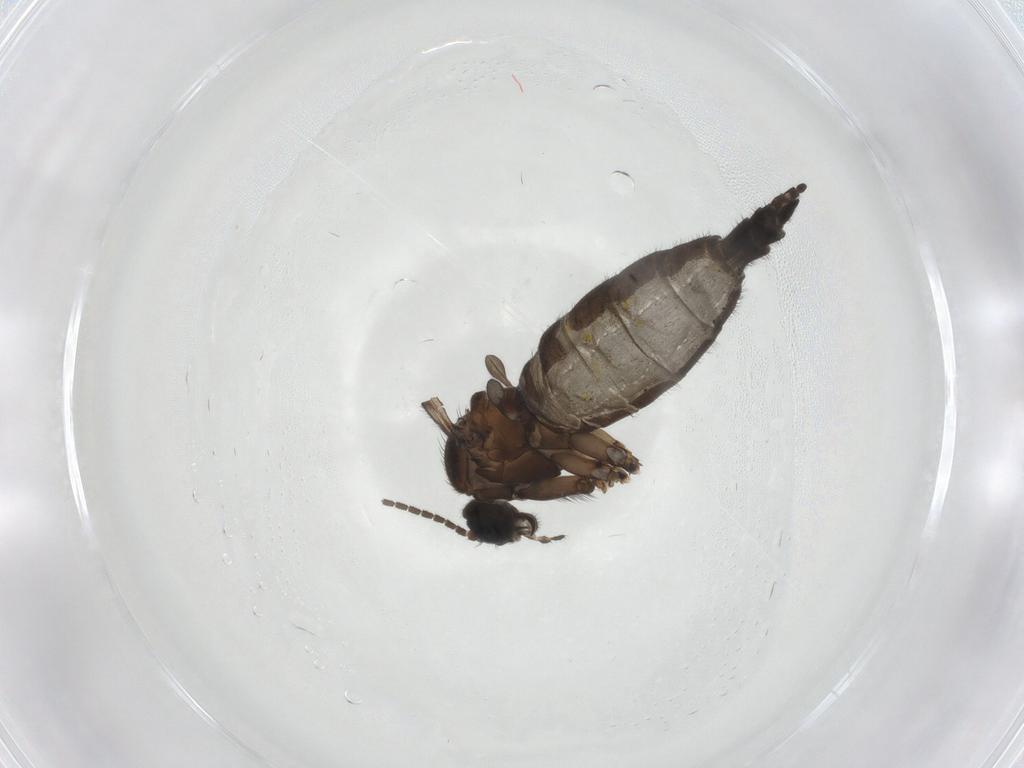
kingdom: Animalia
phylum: Arthropoda
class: Insecta
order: Diptera
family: Sciaridae
